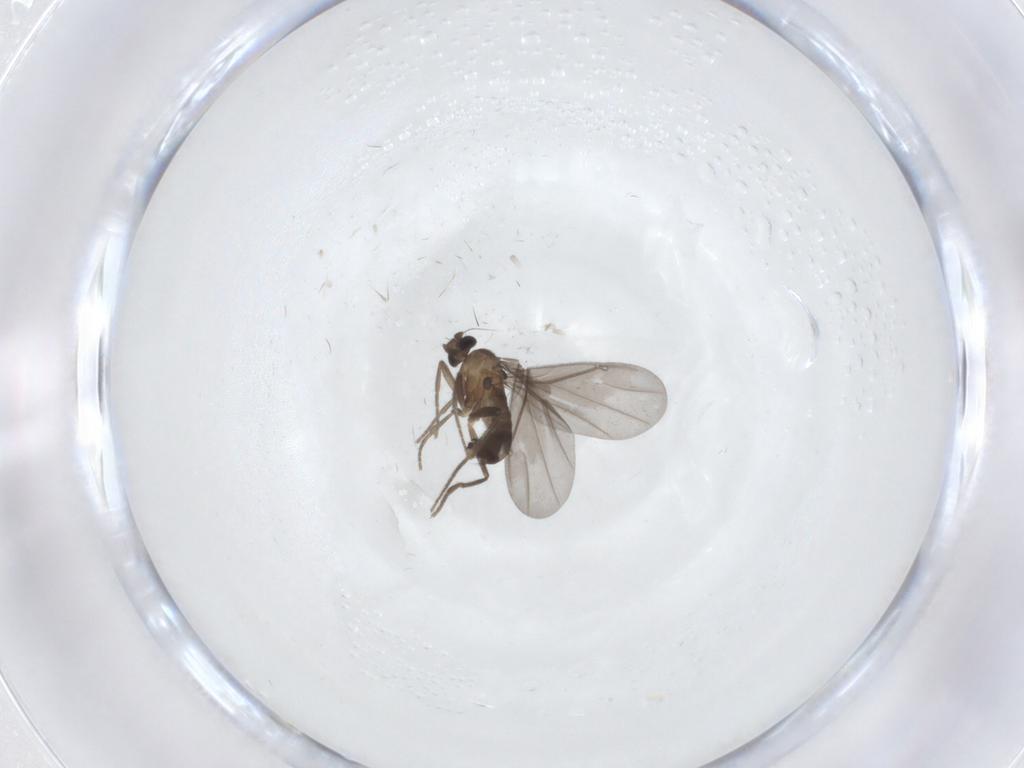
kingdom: Animalia
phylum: Arthropoda
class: Insecta
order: Diptera
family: Phoridae
